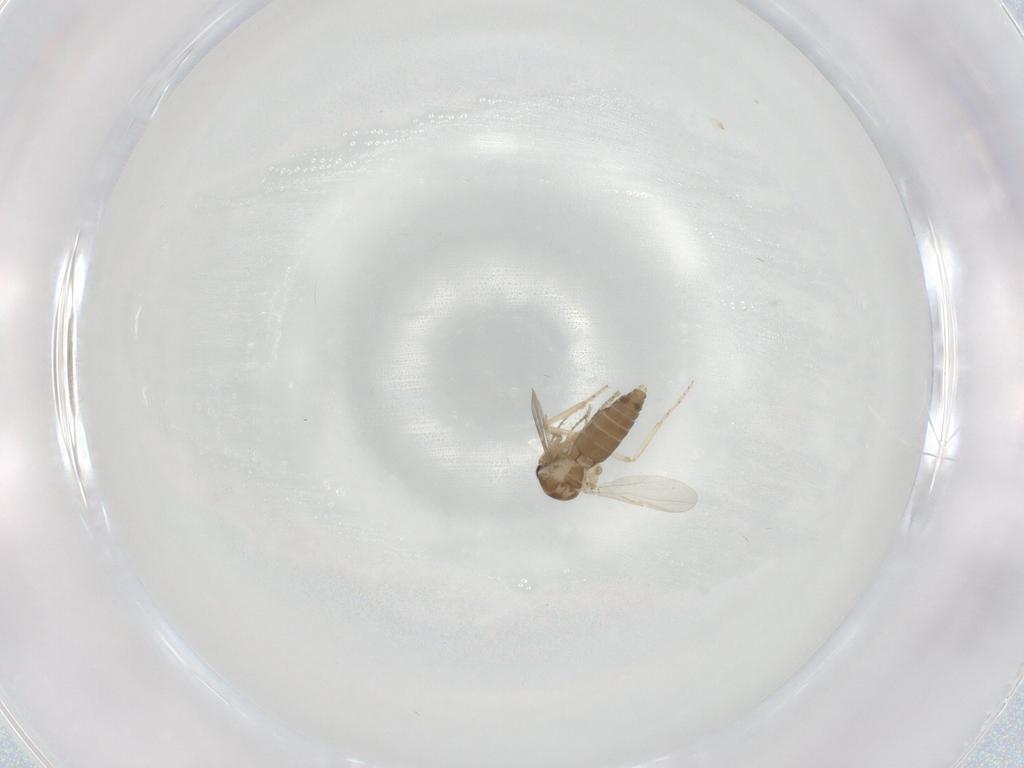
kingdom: Animalia
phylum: Arthropoda
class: Insecta
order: Diptera
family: Ceratopogonidae
